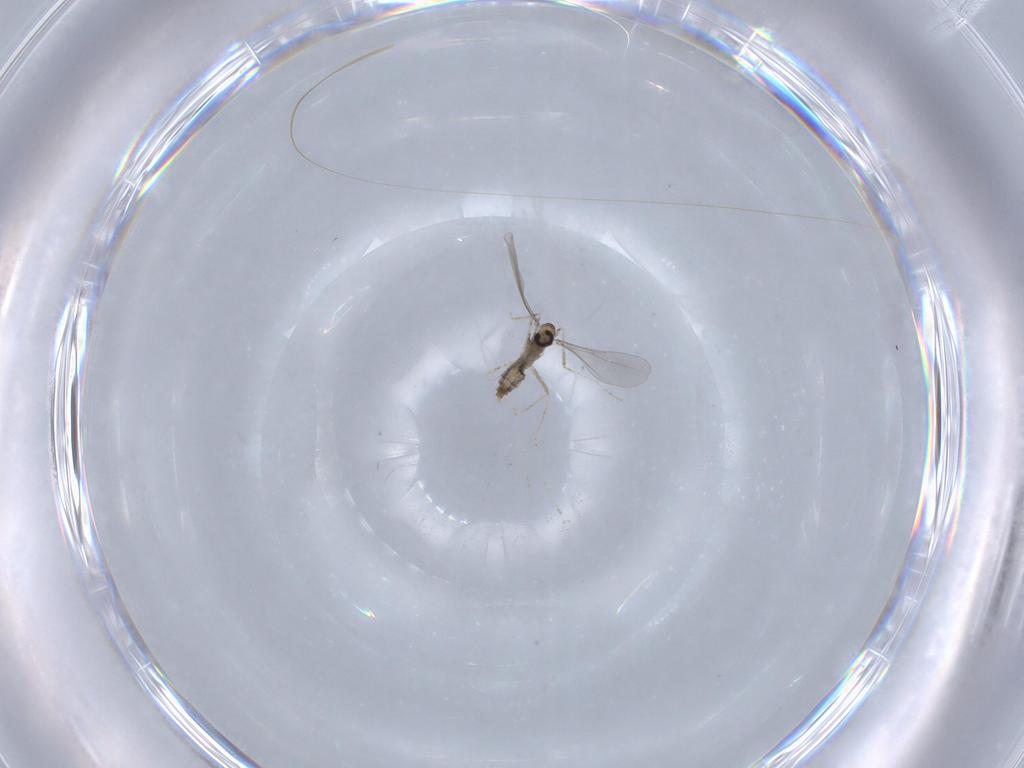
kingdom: Animalia
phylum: Arthropoda
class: Insecta
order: Diptera
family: Cecidomyiidae
